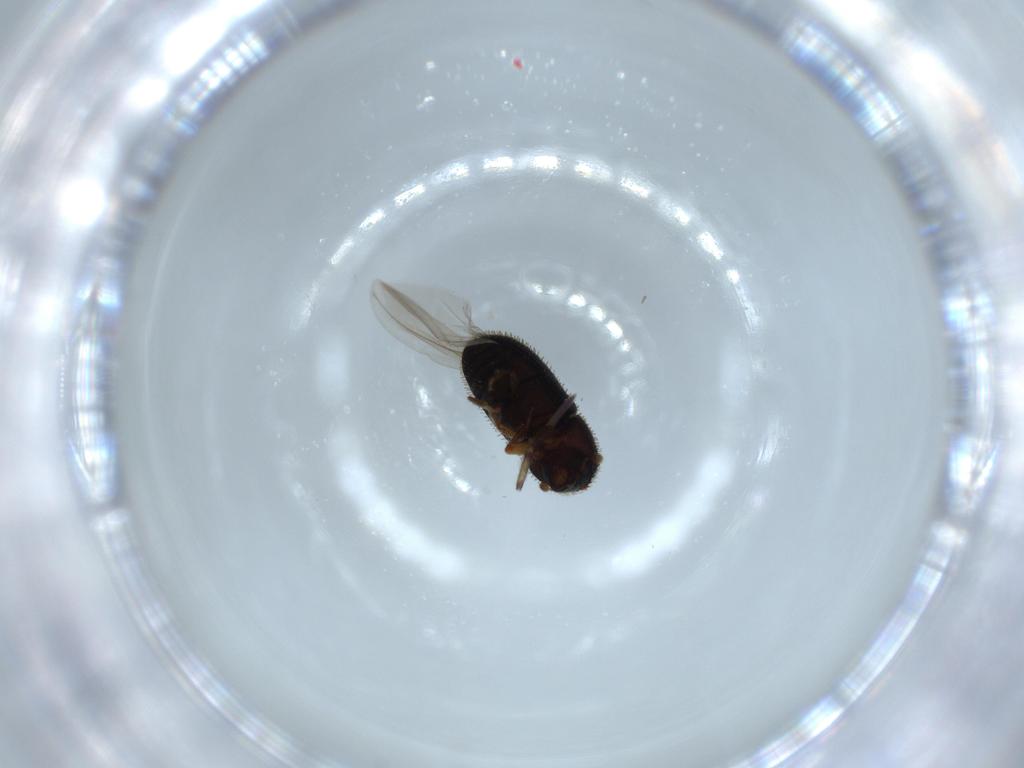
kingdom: Animalia
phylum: Arthropoda
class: Insecta
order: Coleoptera
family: Curculionidae
